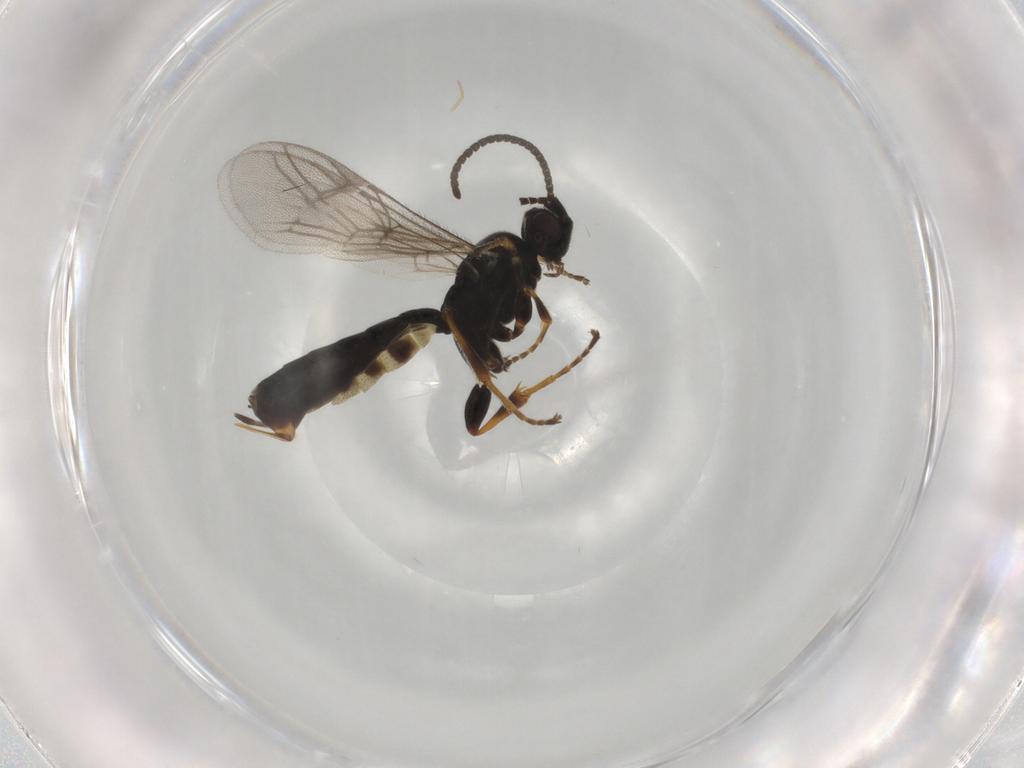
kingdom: Animalia
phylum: Arthropoda
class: Insecta
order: Hymenoptera
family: Ichneumonidae
